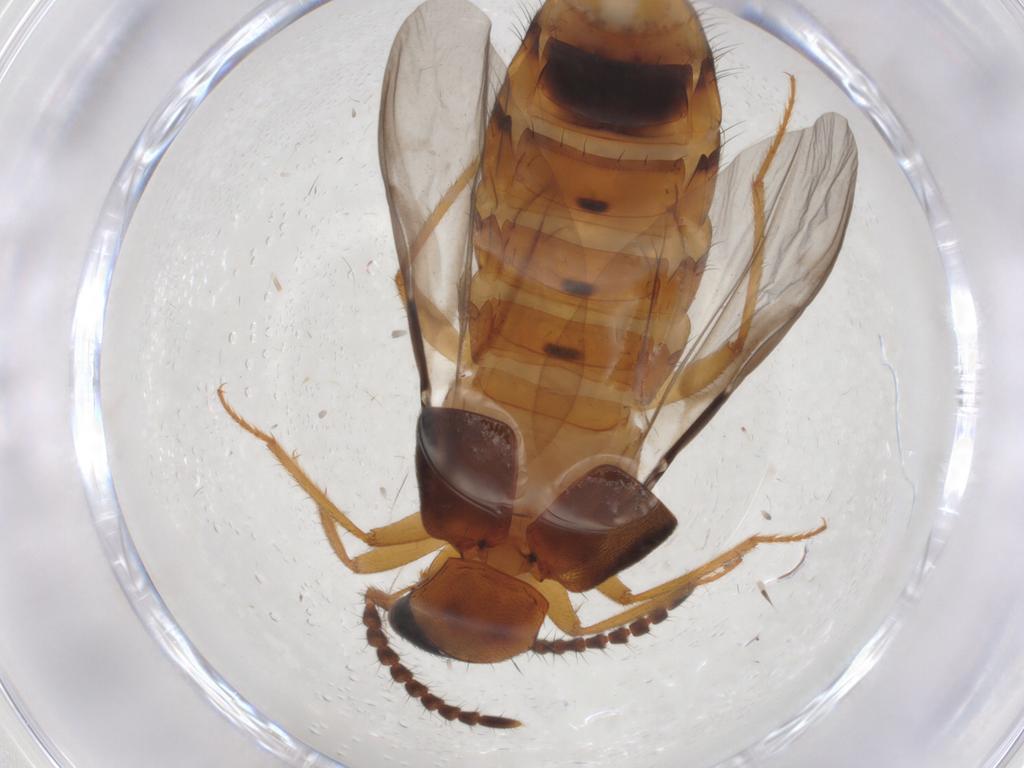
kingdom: Animalia
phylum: Arthropoda
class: Insecta
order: Coleoptera
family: Staphylinidae
